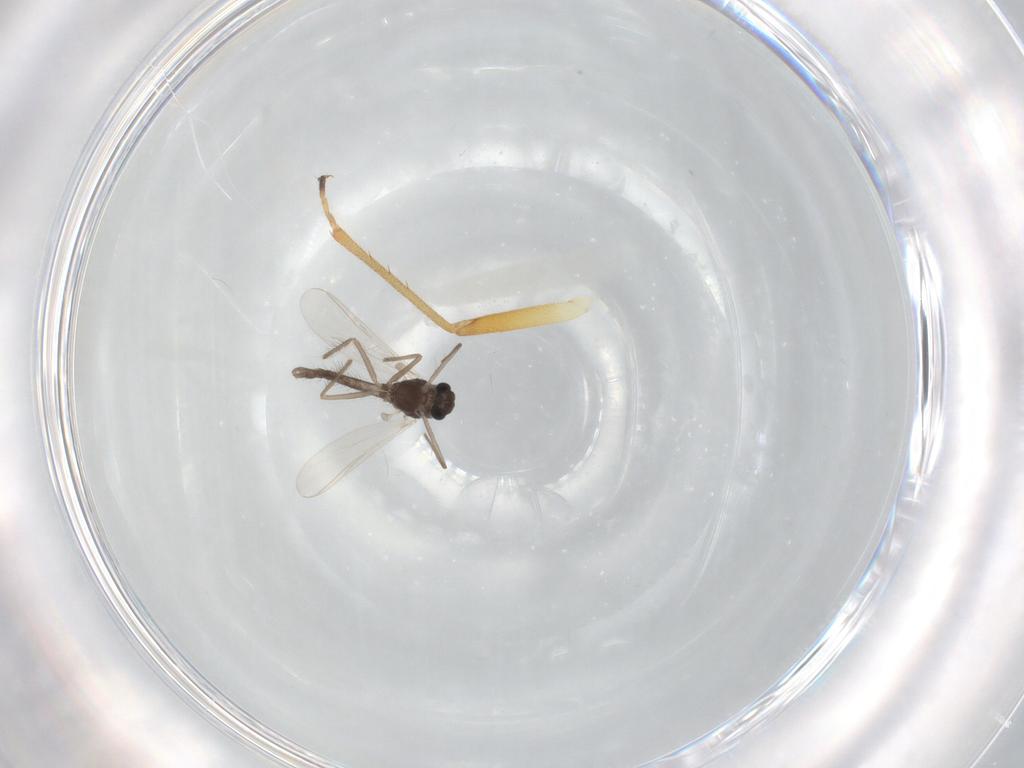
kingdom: Animalia
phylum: Arthropoda
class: Insecta
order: Diptera
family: Chironomidae
